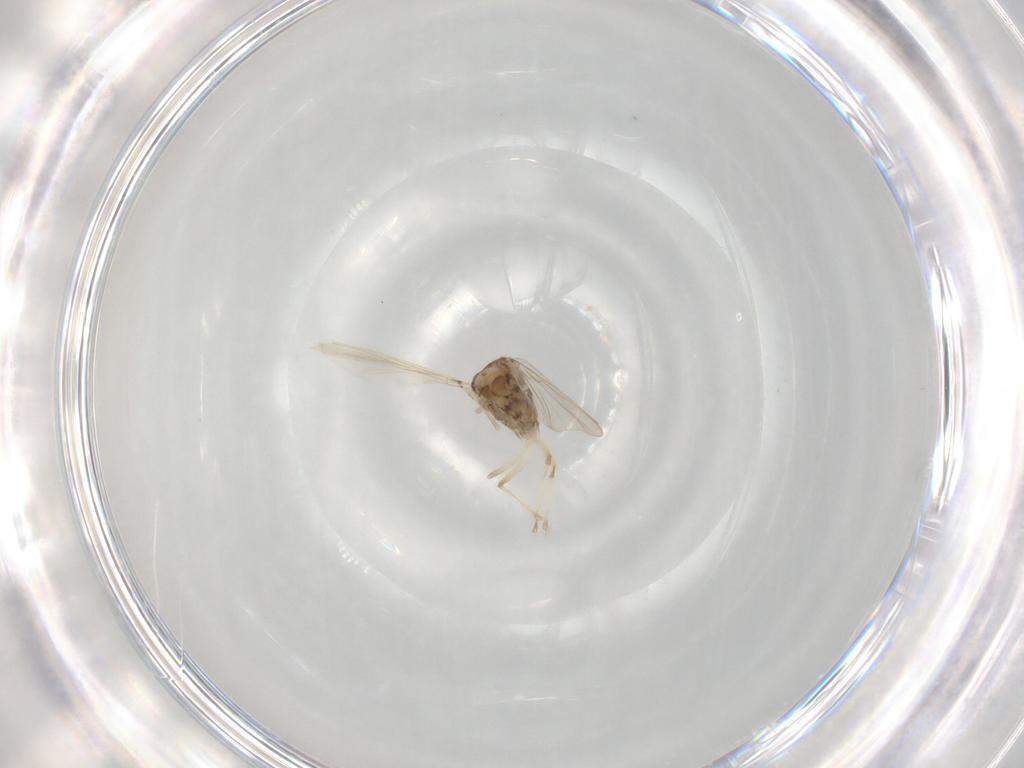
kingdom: Animalia
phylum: Arthropoda
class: Insecta
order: Diptera
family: Chironomidae
